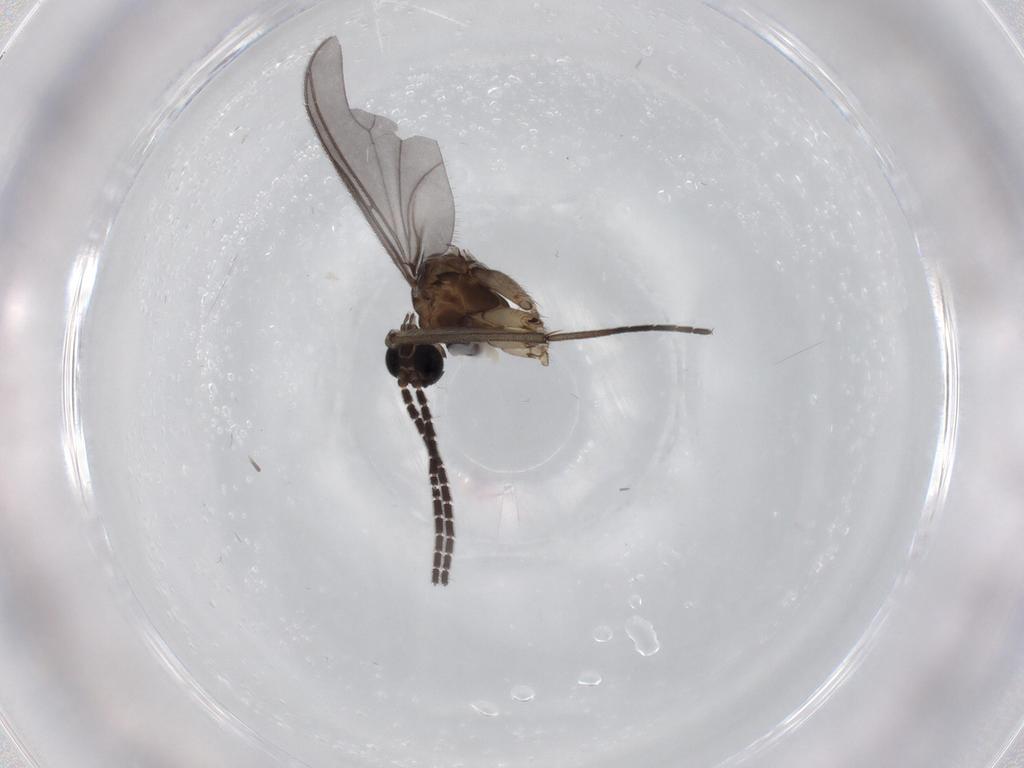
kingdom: Animalia
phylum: Arthropoda
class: Insecta
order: Diptera
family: Sciaridae
